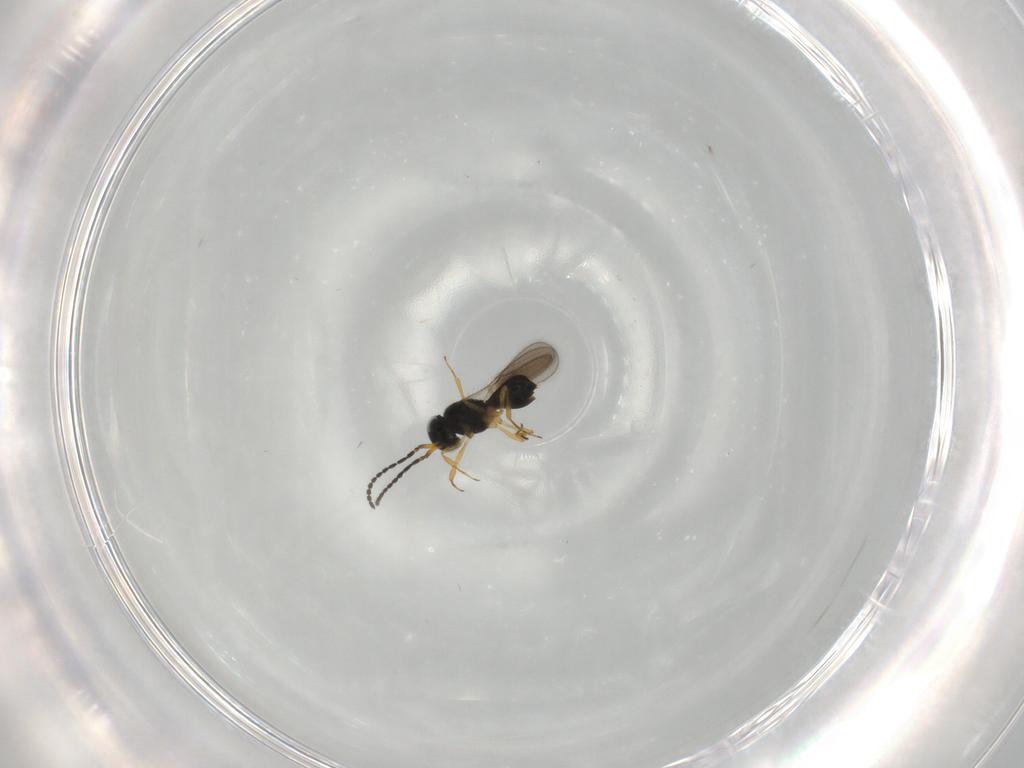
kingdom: Animalia
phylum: Arthropoda
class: Insecta
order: Hymenoptera
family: Scelionidae
